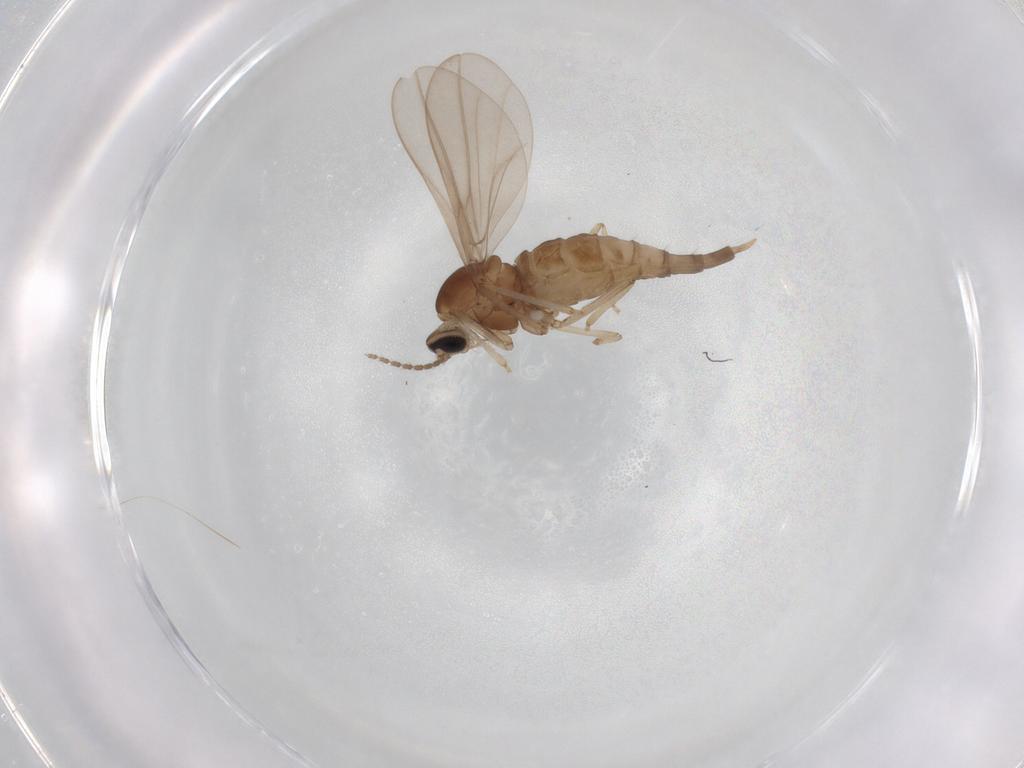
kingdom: Animalia
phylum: Arthropoda
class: Insecta
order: Diptera
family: Cecidomyiidae
